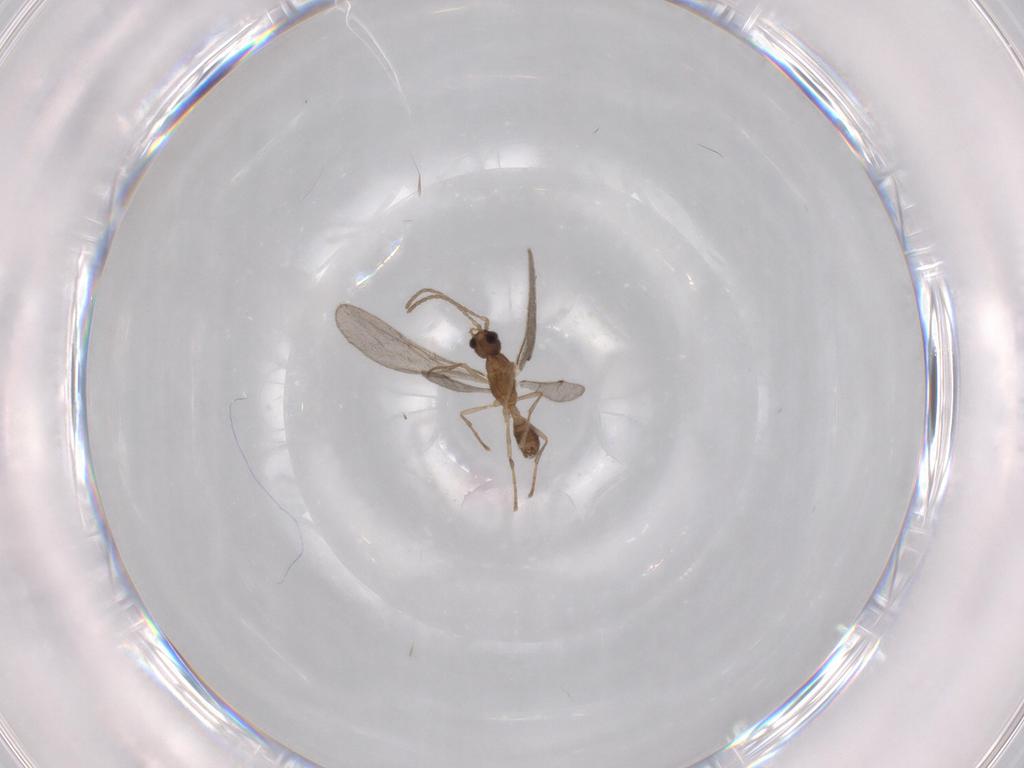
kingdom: Animalia
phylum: Arthropoda
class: Insecta
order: Hymenoptera
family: Formicidae
